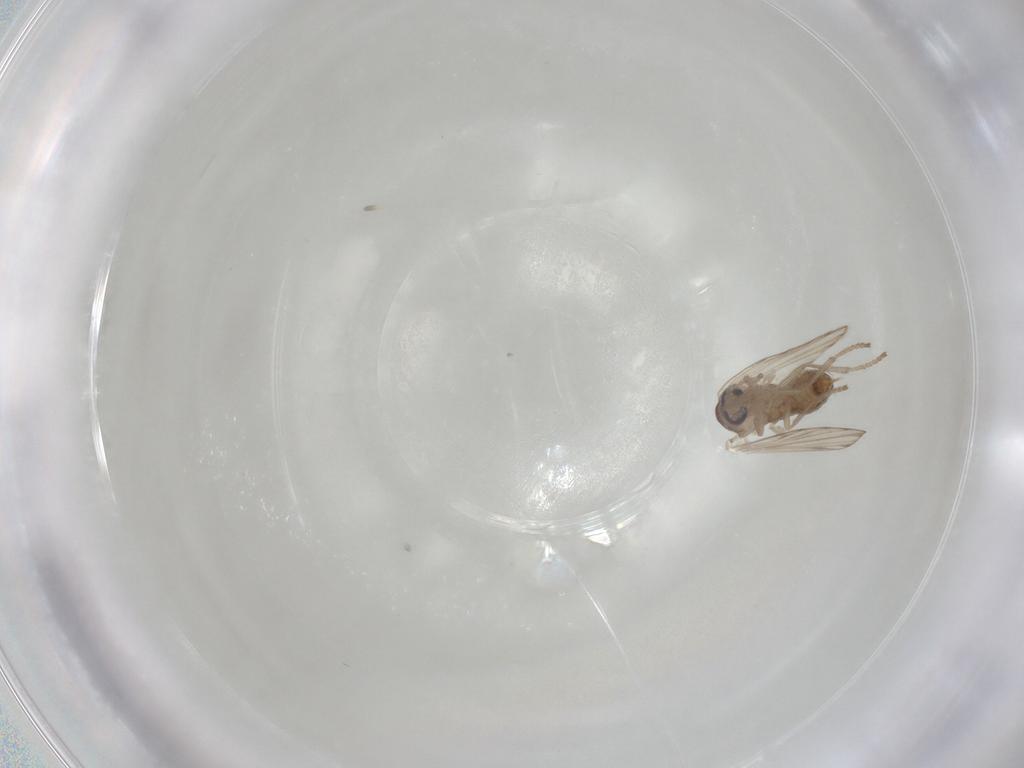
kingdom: Animalia
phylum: Arthropoda
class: Insecta
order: Diptera
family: Psychodidae
